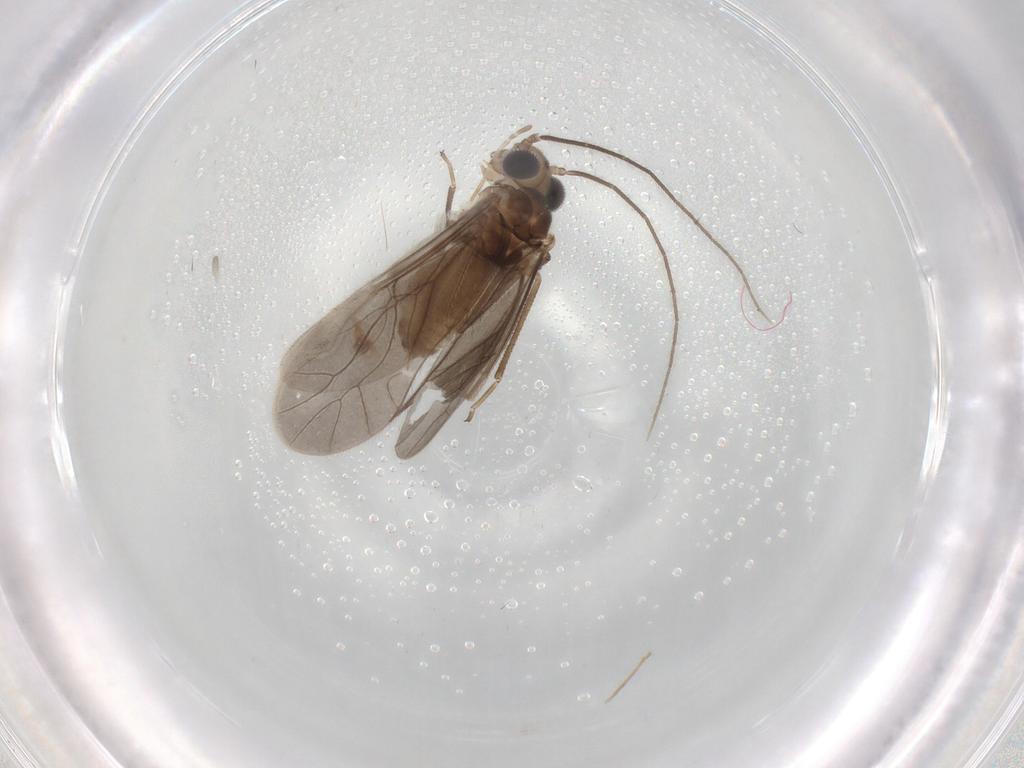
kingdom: Animalia
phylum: Arthropoda
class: Insecta
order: Psocodea
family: Caeciliusidae
